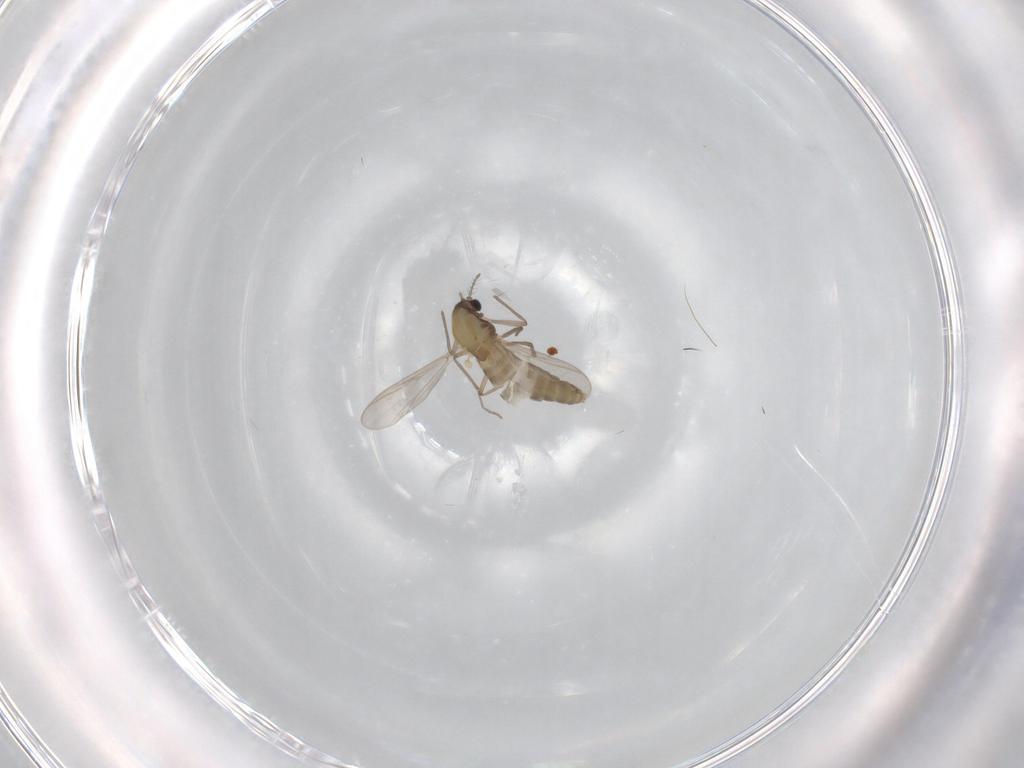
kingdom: Animalia
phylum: Arthropoda
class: Insecta
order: Diptera
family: Chironomidae
